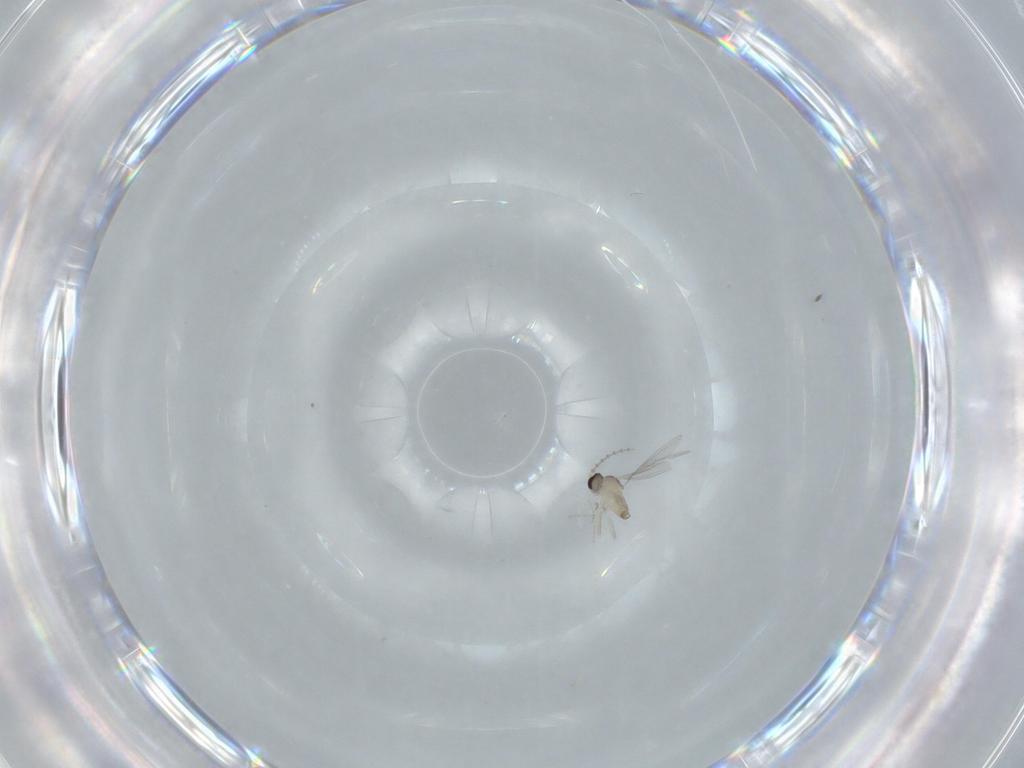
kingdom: Animalia
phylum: Arthropoda
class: Insecta
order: Diptera
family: Cecidomyiidae
